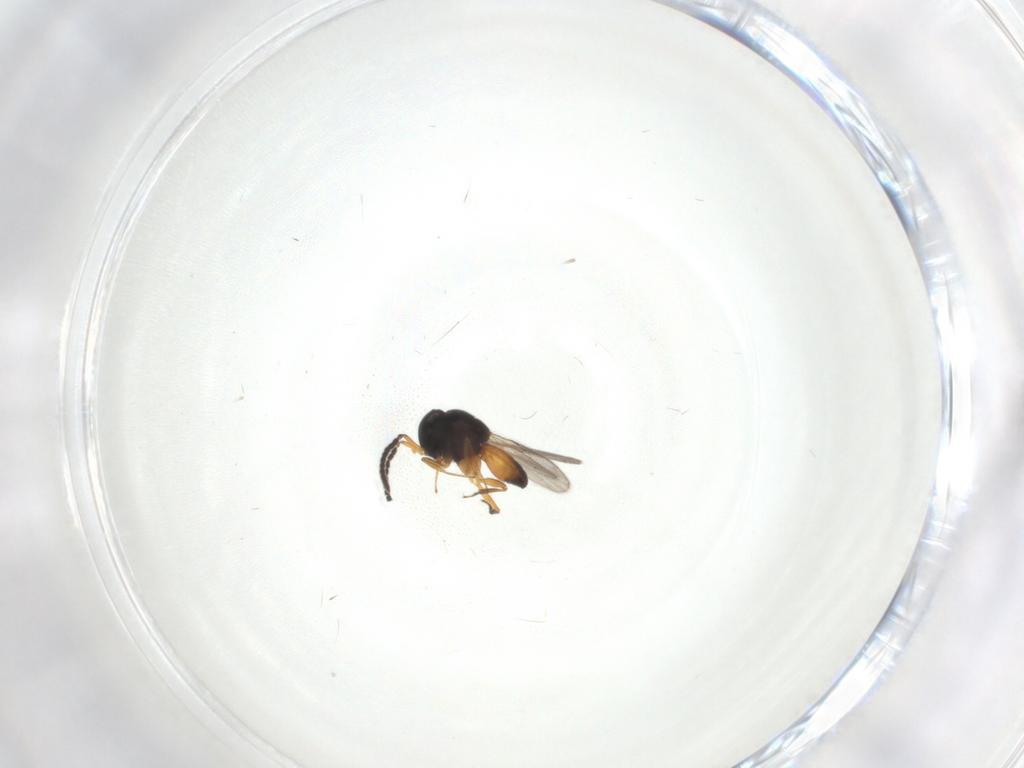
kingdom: Animalia
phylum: Arthropoda
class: Insecta
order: Hymenoptera
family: Scelionidae
